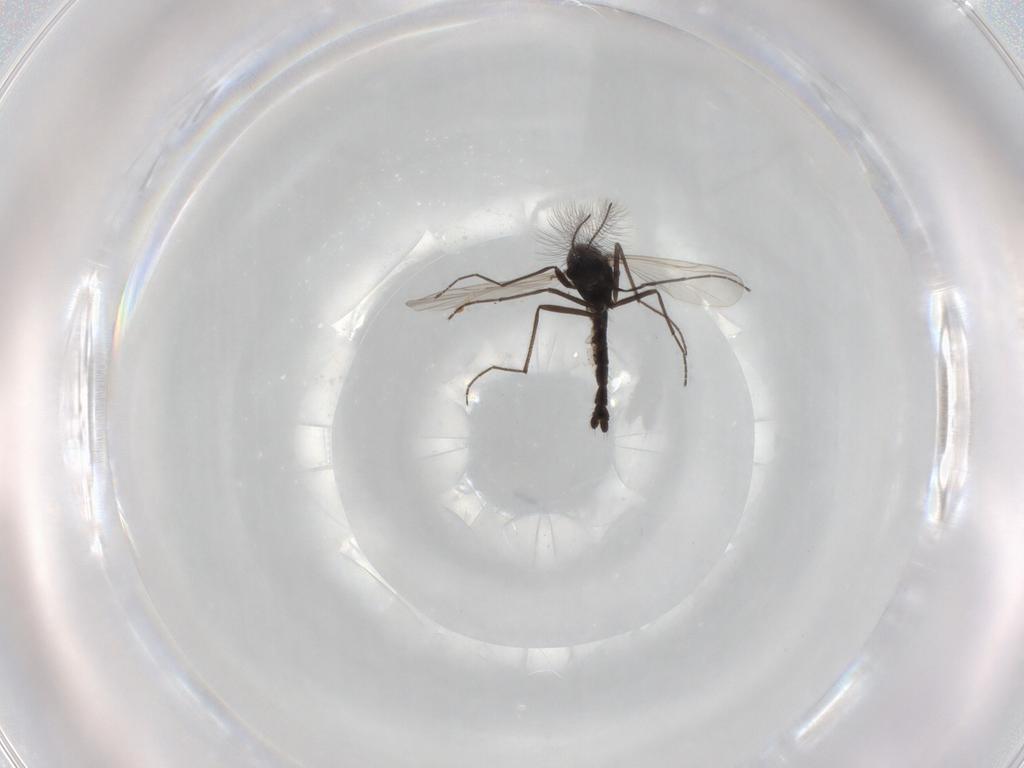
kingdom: Animalia
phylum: Arthropoda
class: Insecta
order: Diptera
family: Chironomidae
